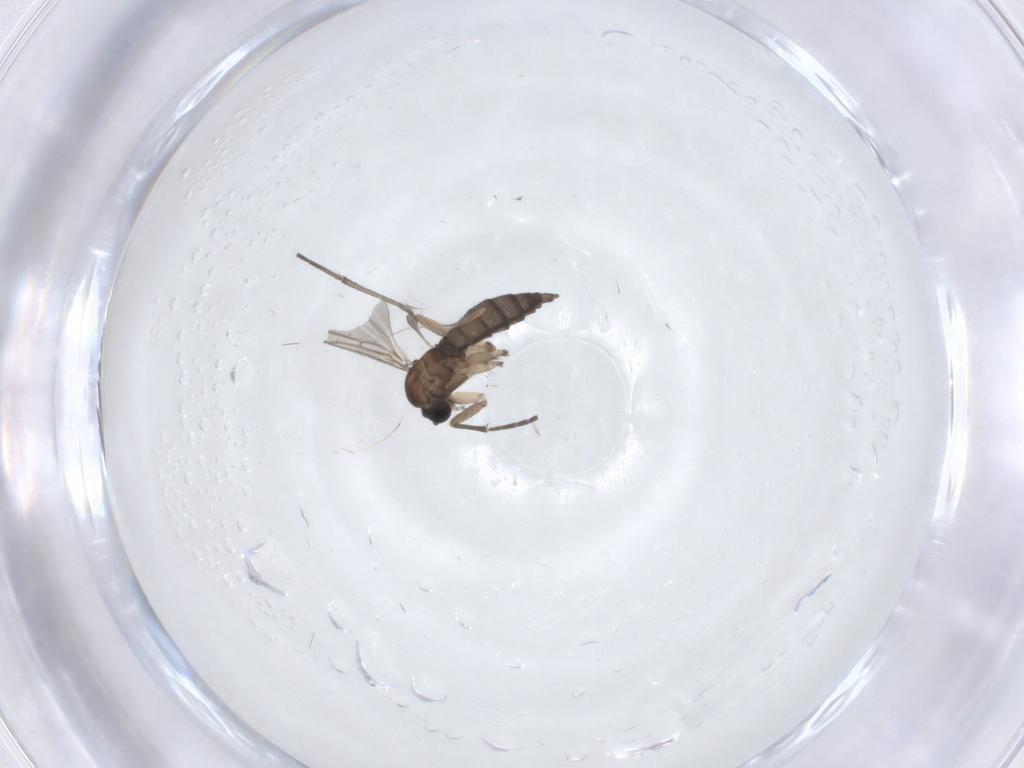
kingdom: Animalia
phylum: Arthropoda
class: Insecta
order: Diptera
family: Sciaridae
